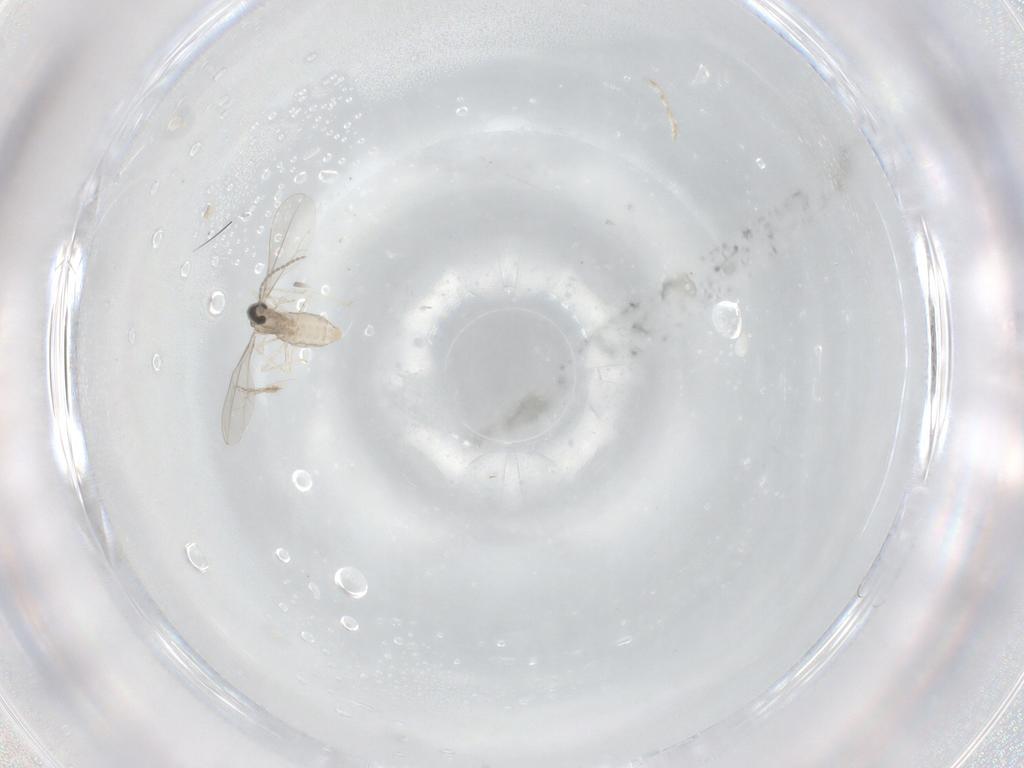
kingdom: Animalia
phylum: Arthropoda
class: Insecta
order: Diptera
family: Cecidomyiidae
